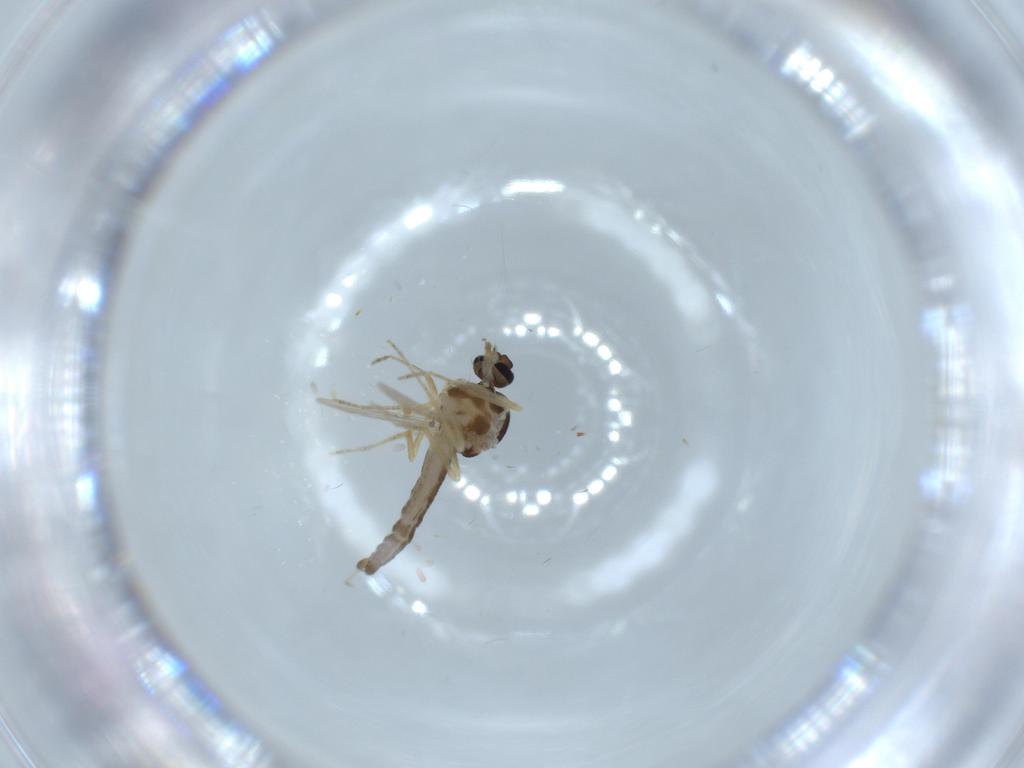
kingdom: Animalia
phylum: Arthropoda
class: Insecta
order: Diptera
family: Ceratopogonidae
